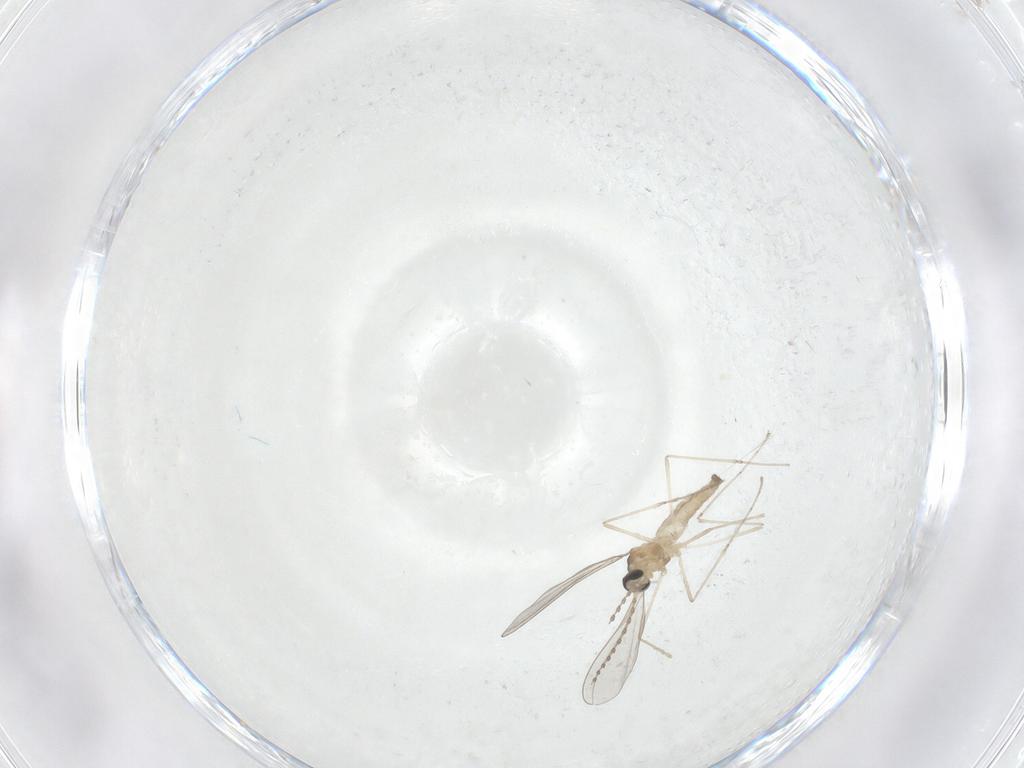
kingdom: Animalia
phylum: Arthropoda
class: Insecta
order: Diptera
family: Cecidomyiidae
